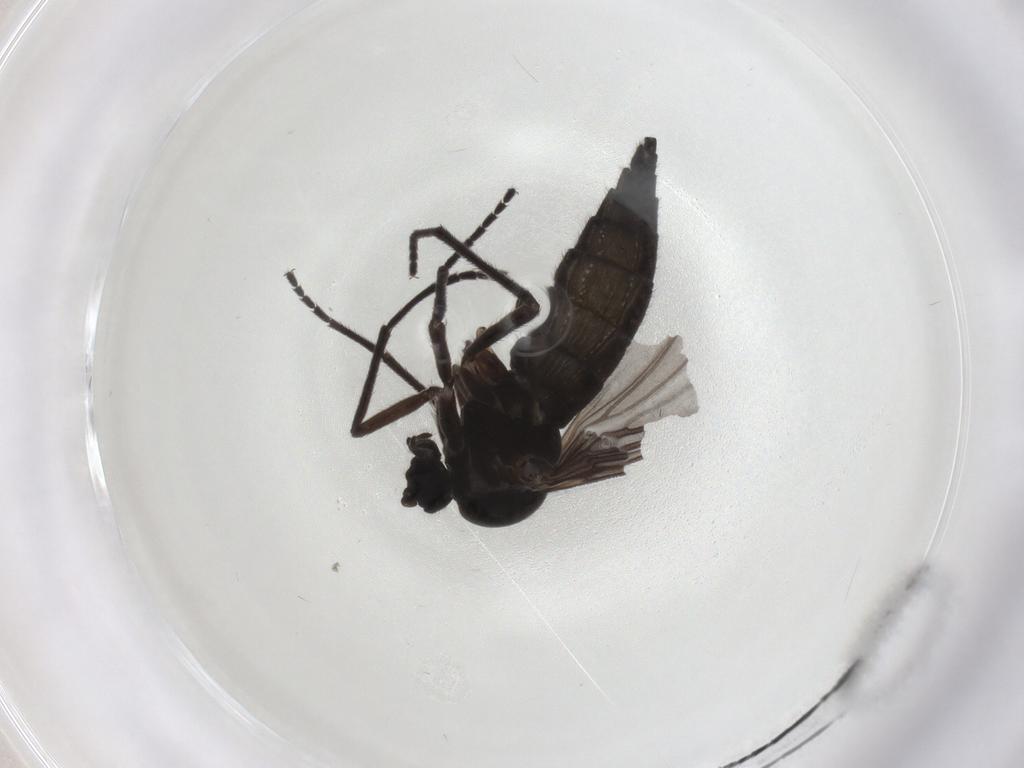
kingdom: Animalia
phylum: Arthropoda
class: Insecta
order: Diptera
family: Sciaridae
